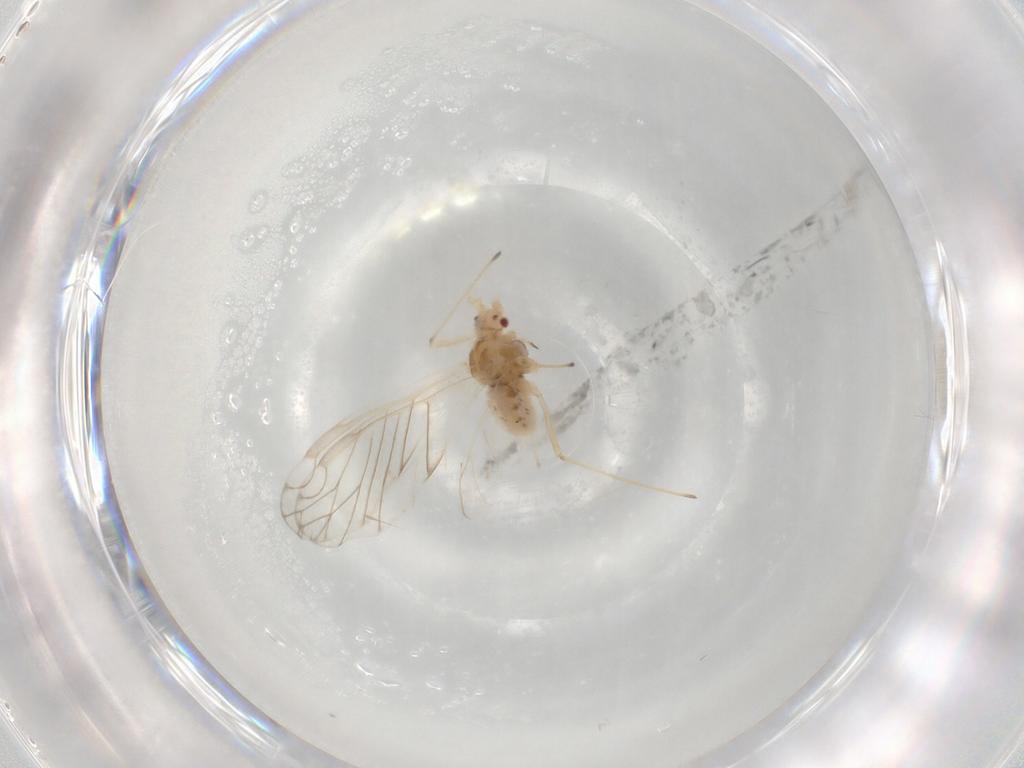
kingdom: Animalia
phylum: Arthropoda
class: Insecta
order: Hemiptera
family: Aphididae
